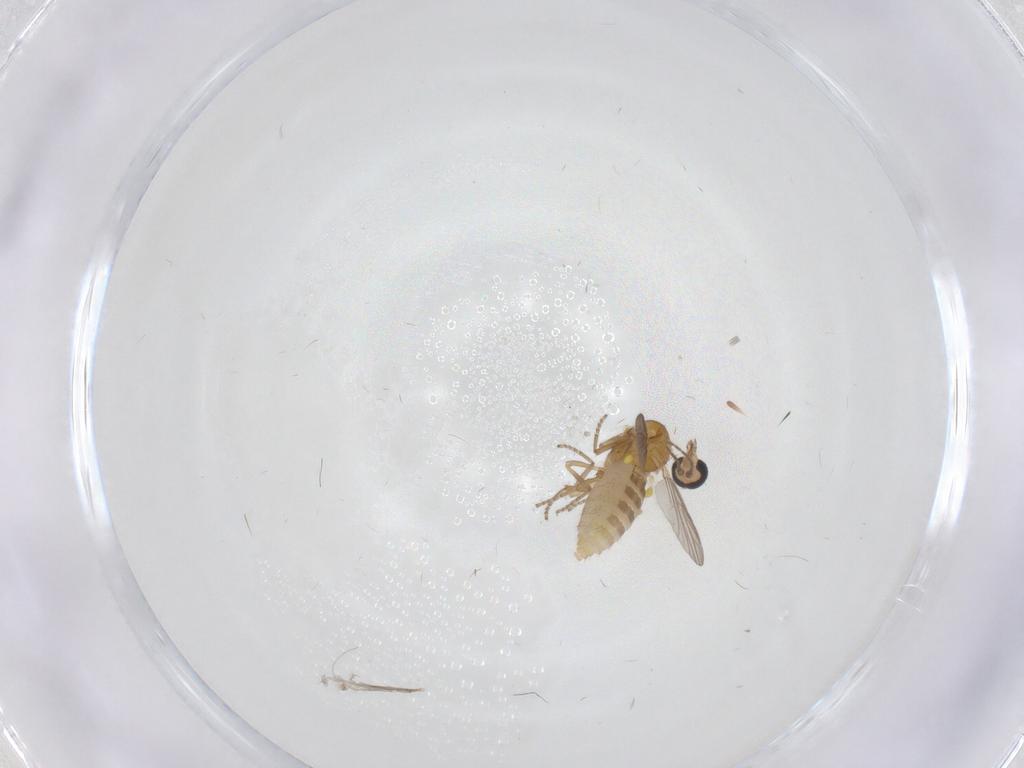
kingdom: Animalia
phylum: Arthropoda
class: Insecta
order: Diptera
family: Ceratopogonidae
